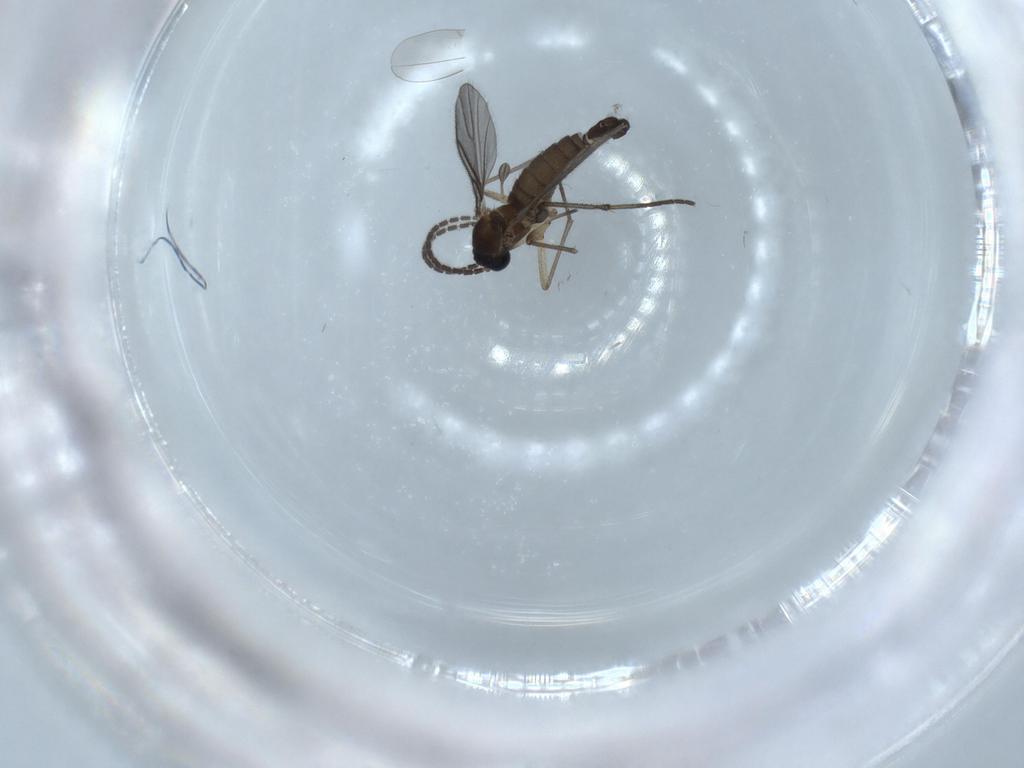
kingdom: Animalia
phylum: Arthropoda
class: Insecta
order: Diptera
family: Sciaridae
